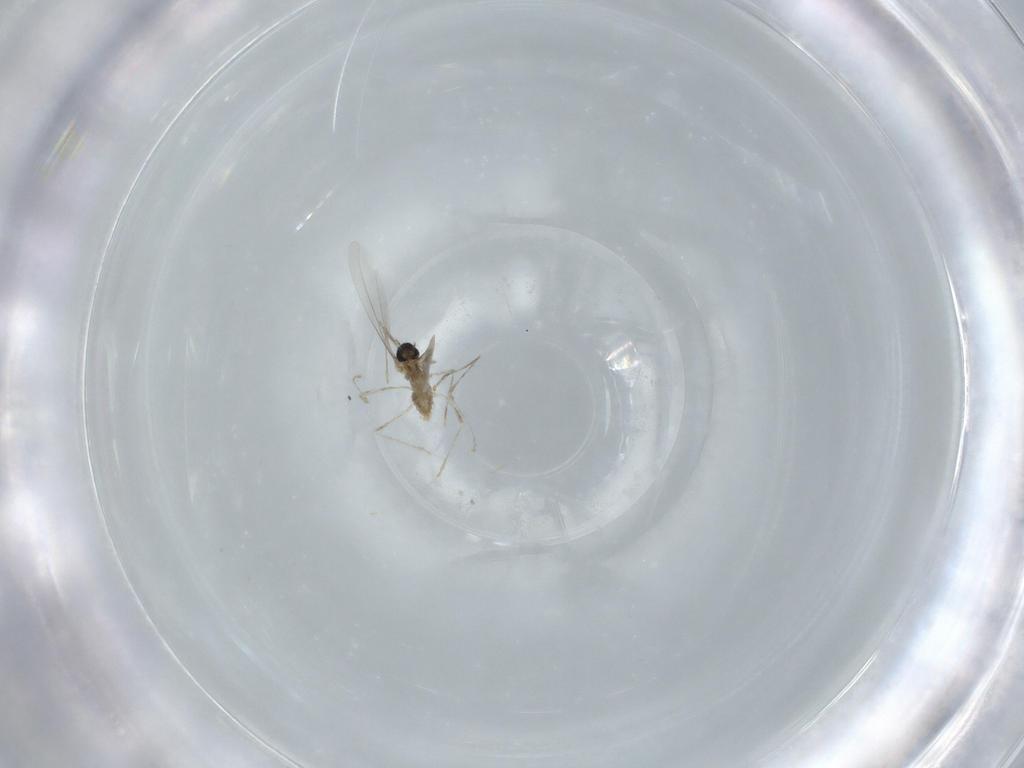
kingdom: Animalia
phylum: Arthropoda
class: Insecta
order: Diptera
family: Cecidomyiidae
